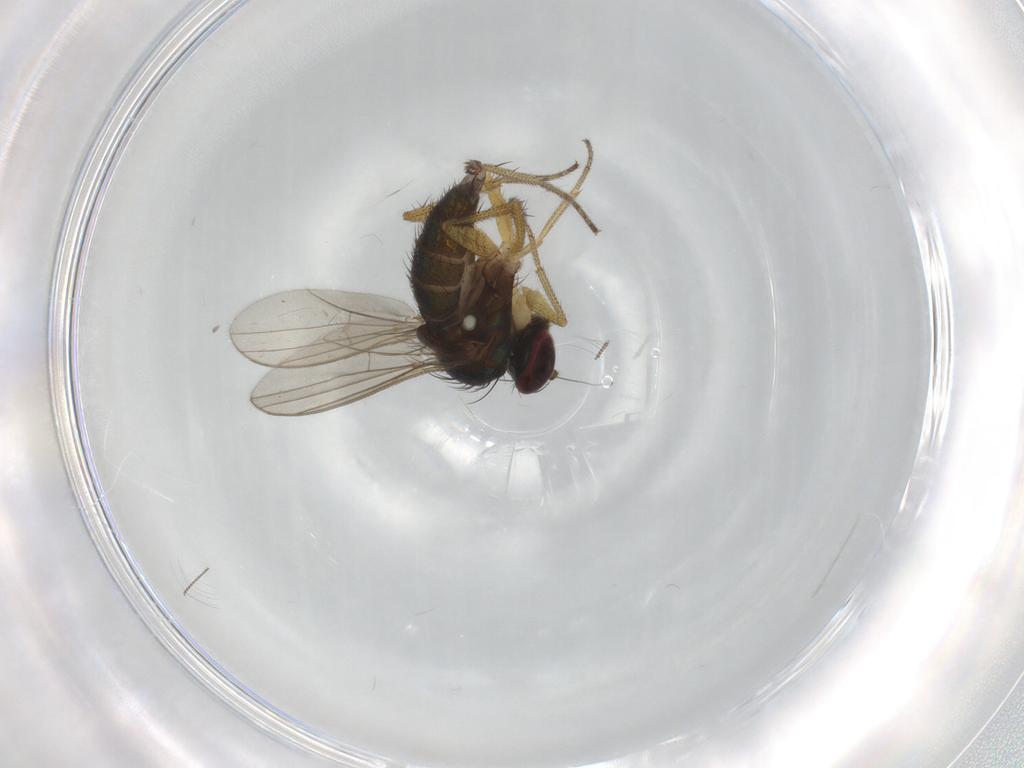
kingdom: Animalia
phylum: Arthropoda
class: Insecta
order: Diptera
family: Dolichopodidae
